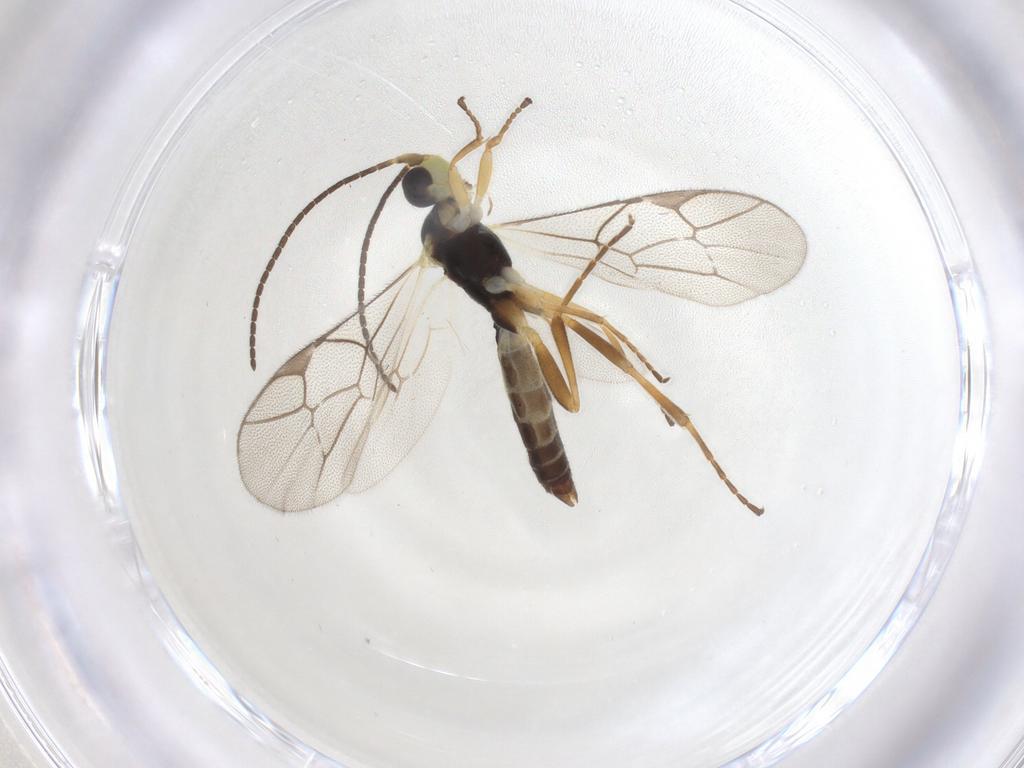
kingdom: Animalia
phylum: Arthropoda
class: Insecta
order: Hymenoptera
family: Ichneumonidae
